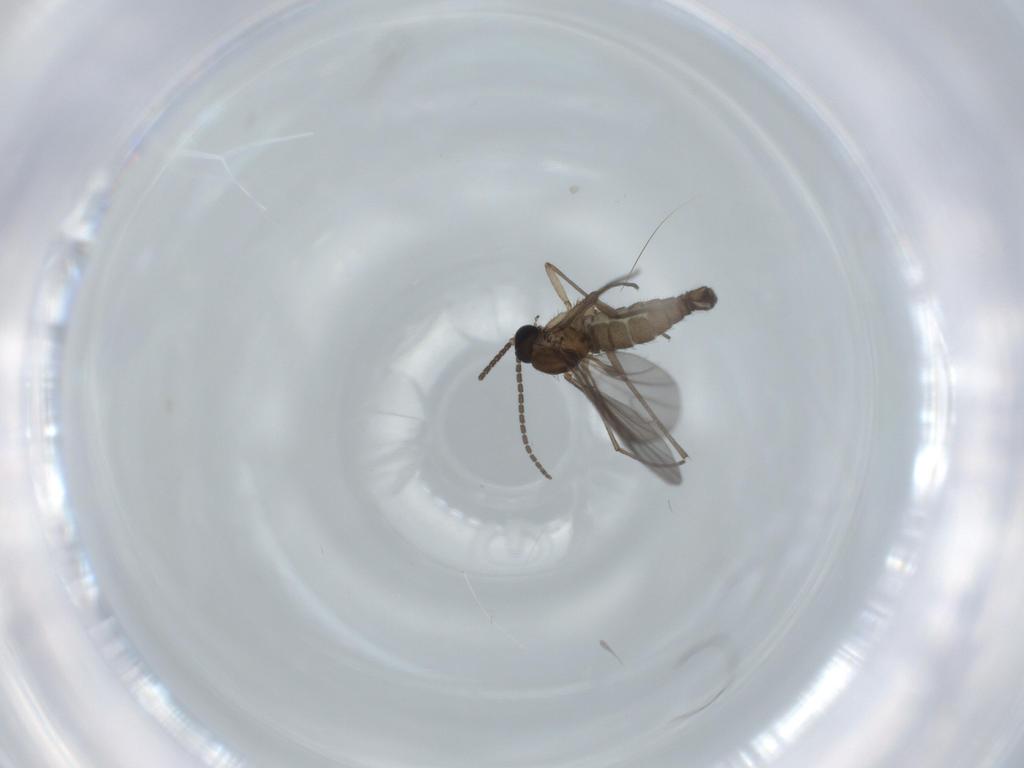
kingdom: Animalia
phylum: Arthropoda
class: Insecta
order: Diptera
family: Sciaridae
